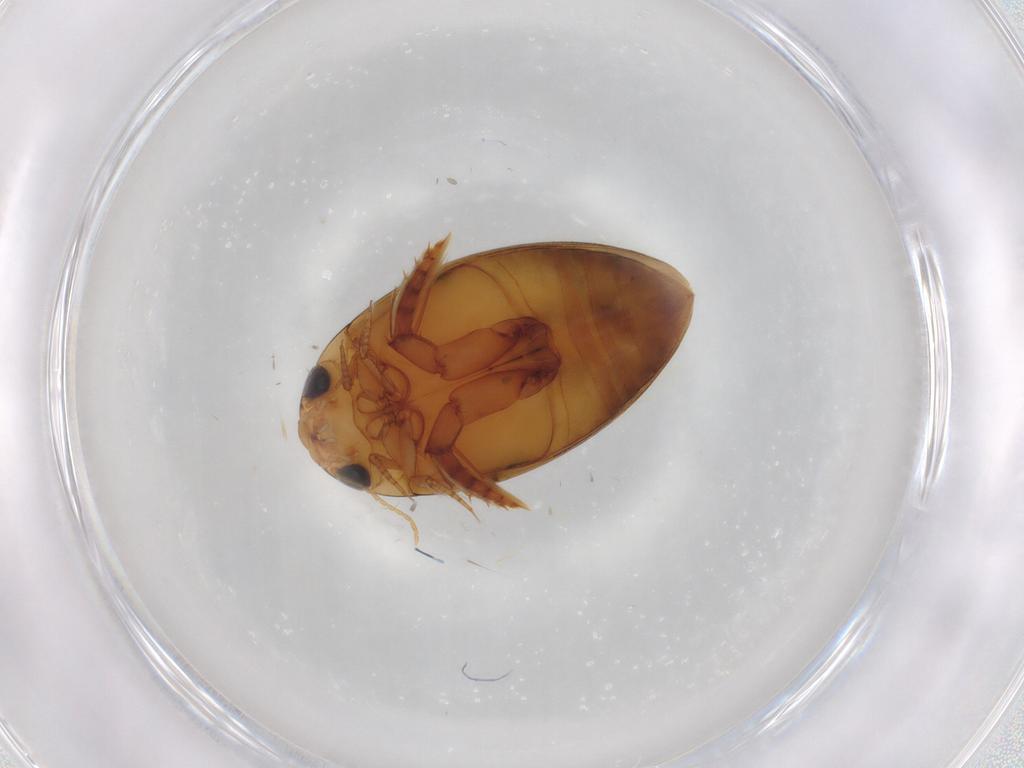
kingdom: Animalia
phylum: Arthropoda
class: Insecta
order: Coleoptera
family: Dytiscidae
